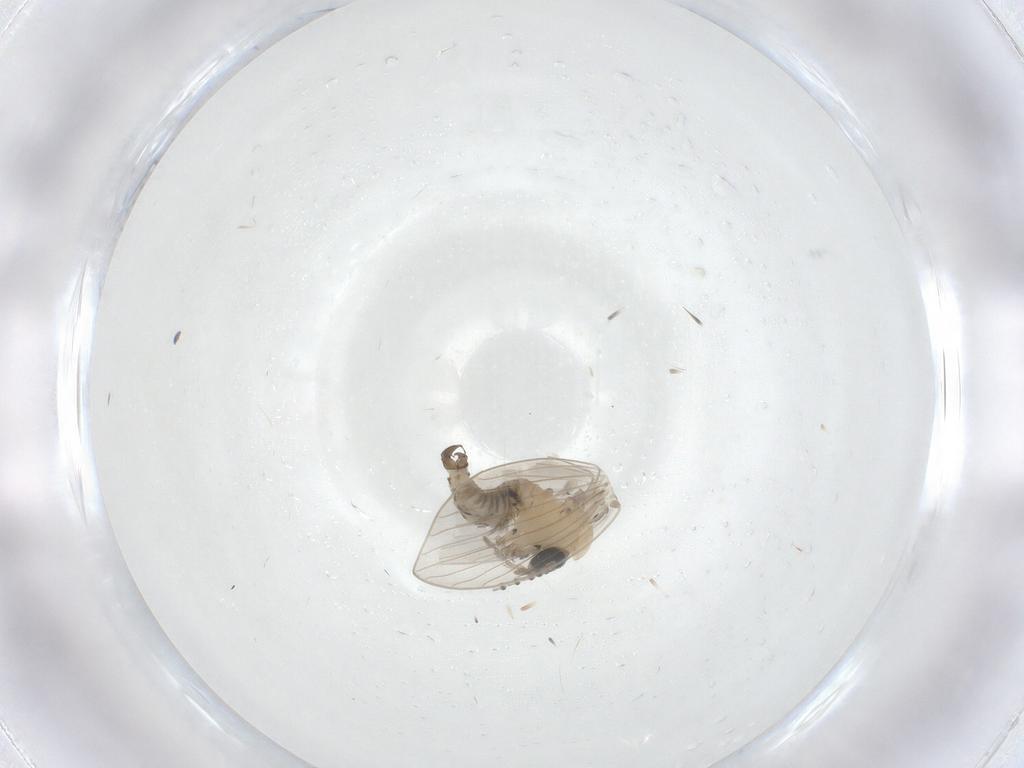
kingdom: Animalia
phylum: Arthropoda
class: Insecta
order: Diptera
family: Psychodidae
